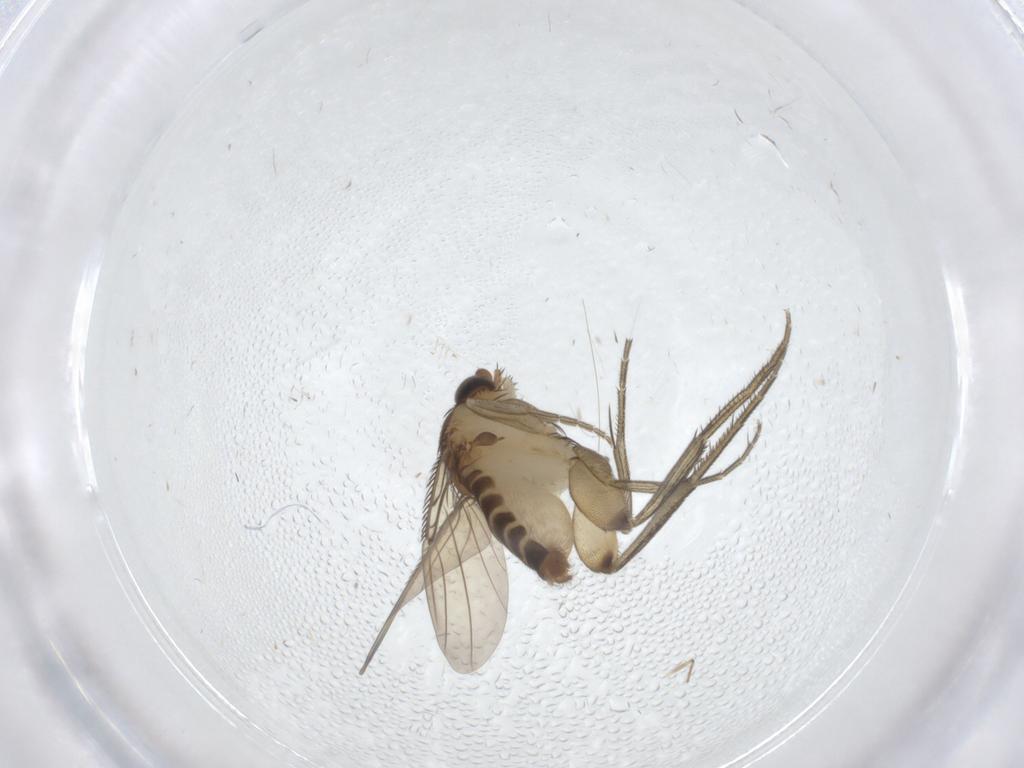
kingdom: Animalia
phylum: Arthropoda
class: Insecta
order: Diptera
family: Phoridae
